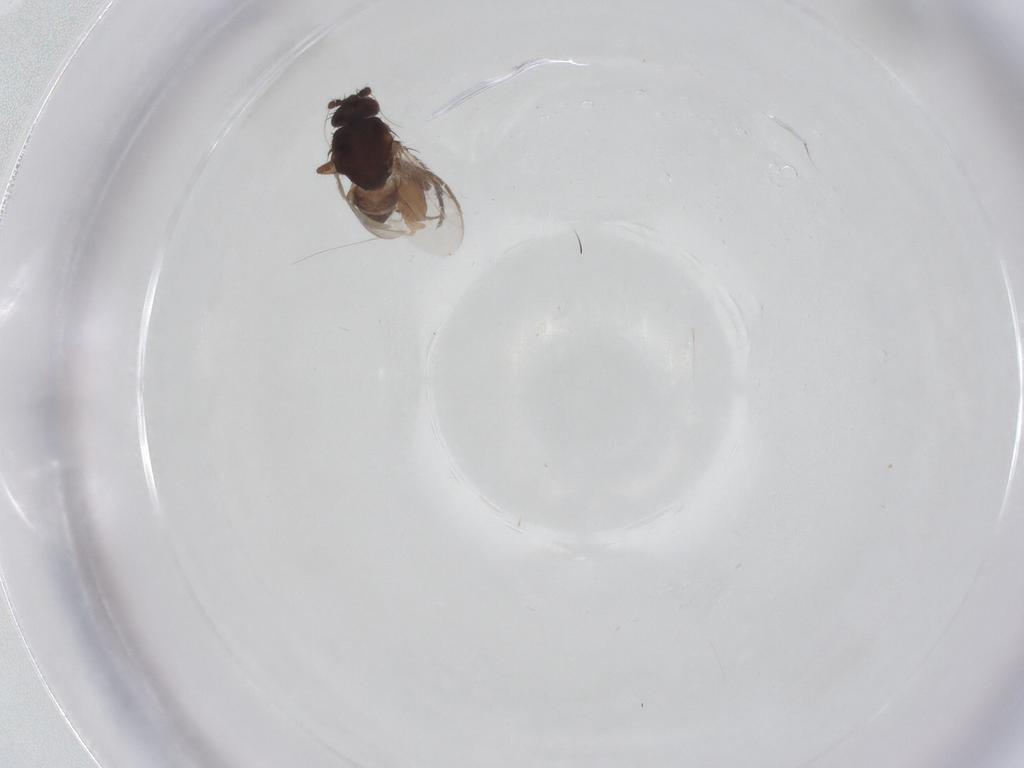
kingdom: Animalia
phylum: Arthropoda
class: Insecta
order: Diptera
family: Sphaeroceridae
